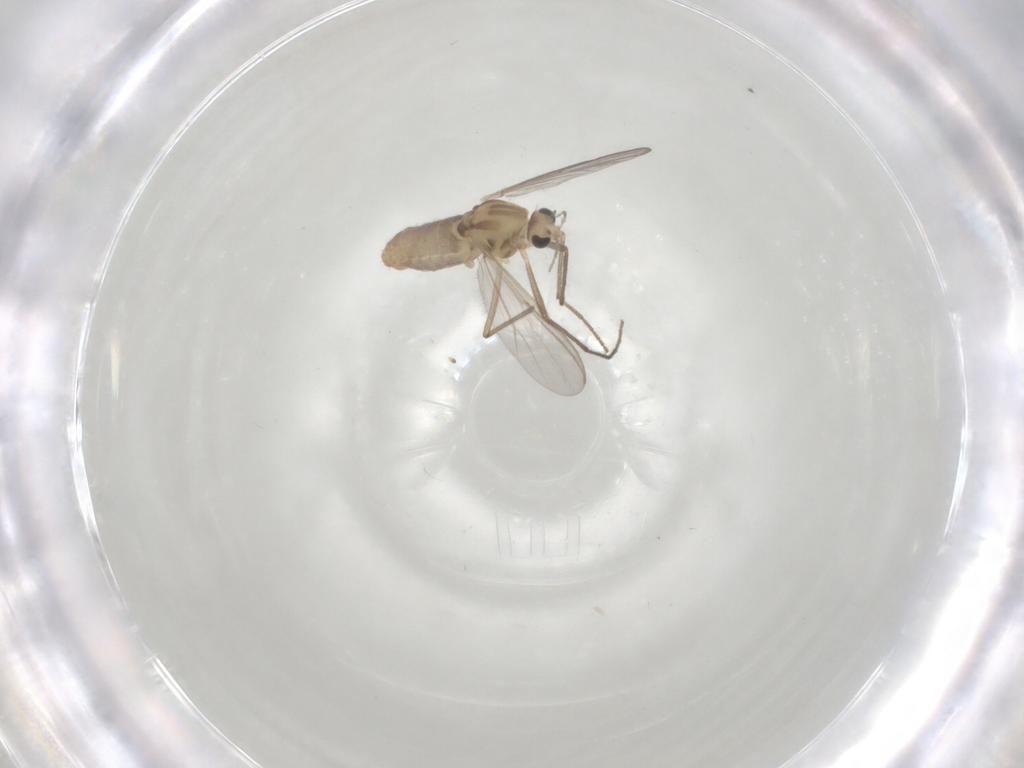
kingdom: Animalia
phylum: Arthropoda
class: Insecta
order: Diptera
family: Chironomidae
